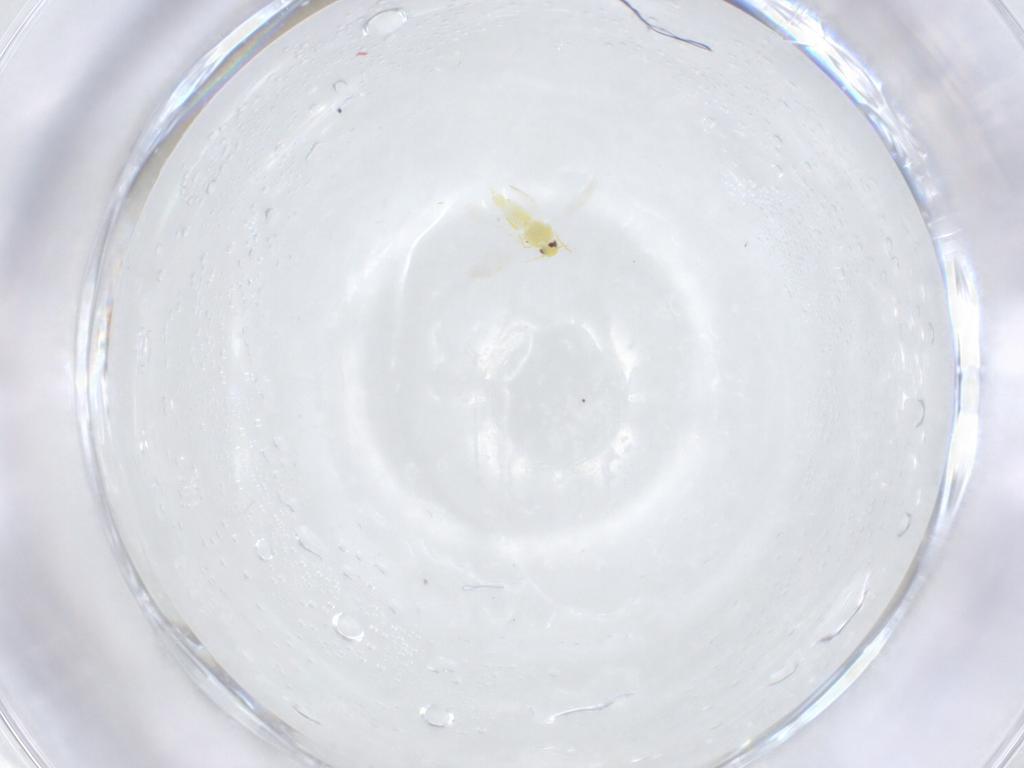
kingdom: Animalia
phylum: Arthropoda
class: Insecta
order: Hemiptera
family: Aleyrodidae
